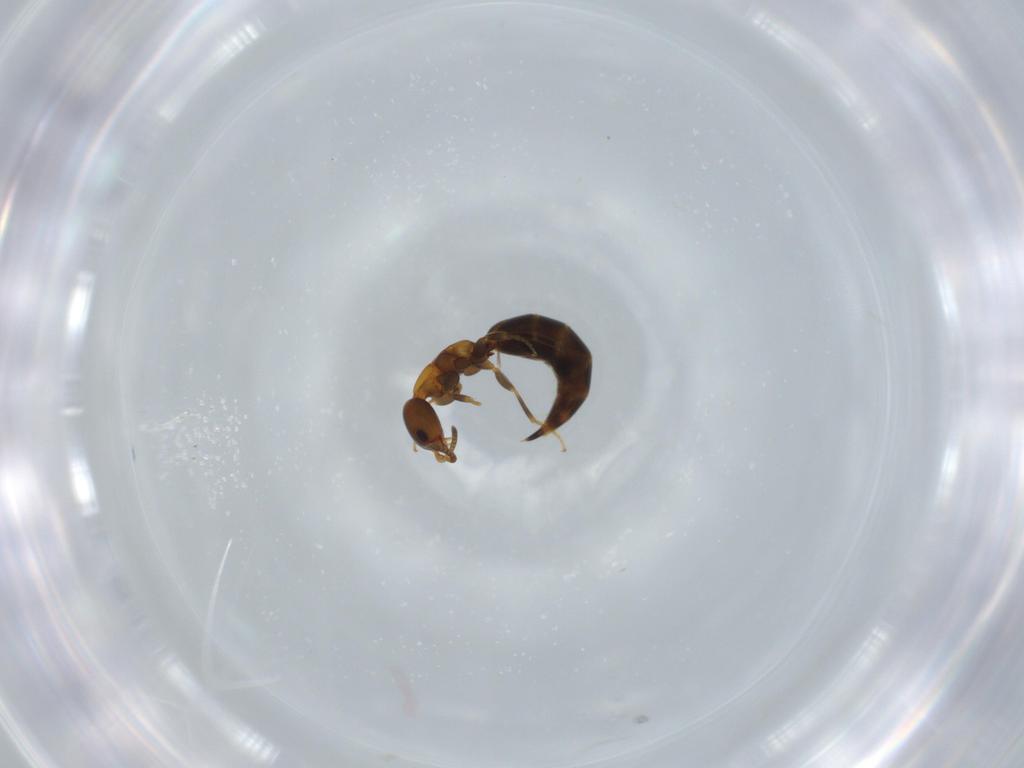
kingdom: Animalia
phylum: Arthropoda
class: Insecta
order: Hymenoptera
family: Bethylidae
